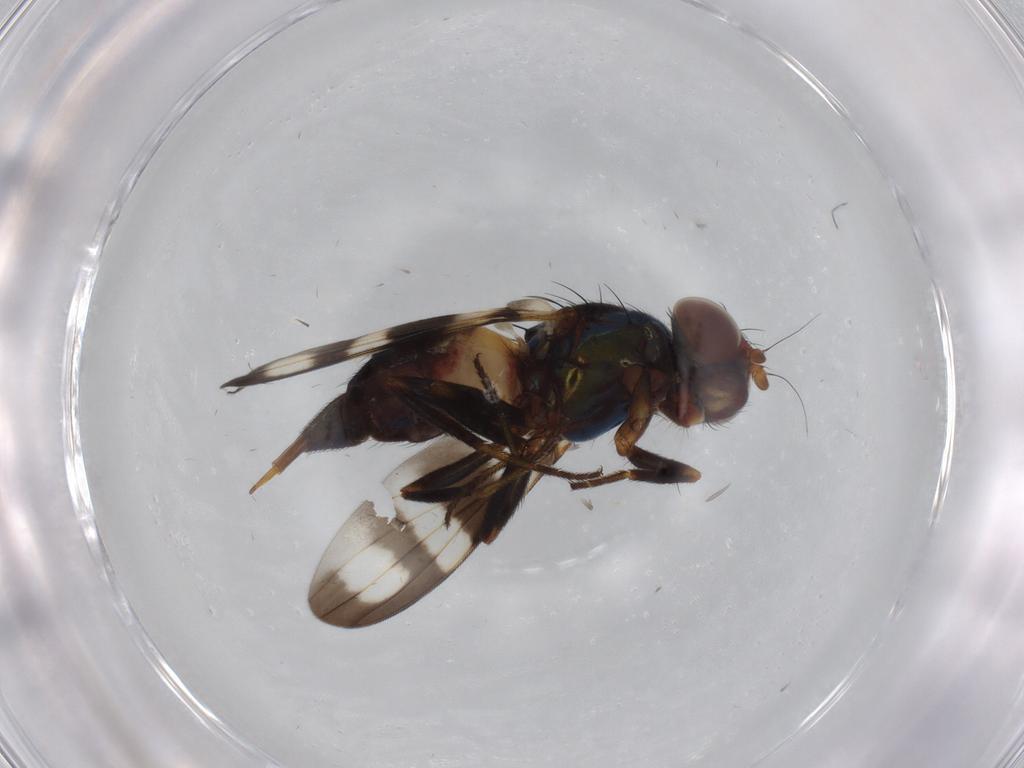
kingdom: Animalia
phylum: Arthropoda
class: Insecta
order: Diptera
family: Ulidiidae
